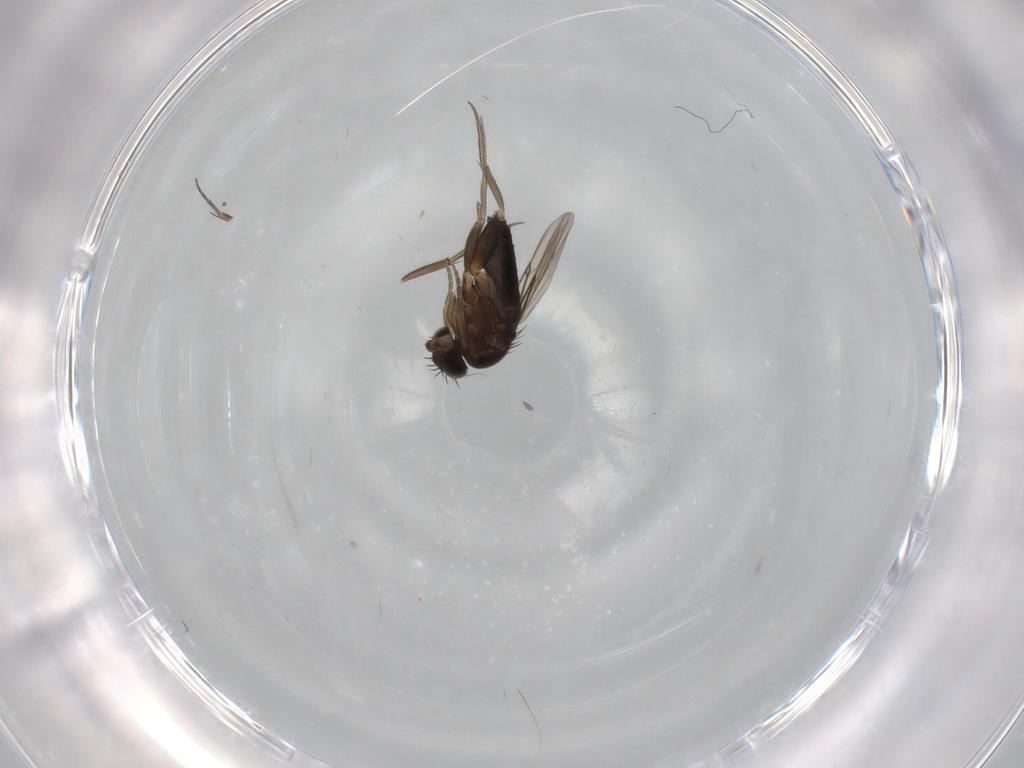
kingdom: Animalia
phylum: Arthropoda
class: Insecta
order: Diptera
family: Phoridae
